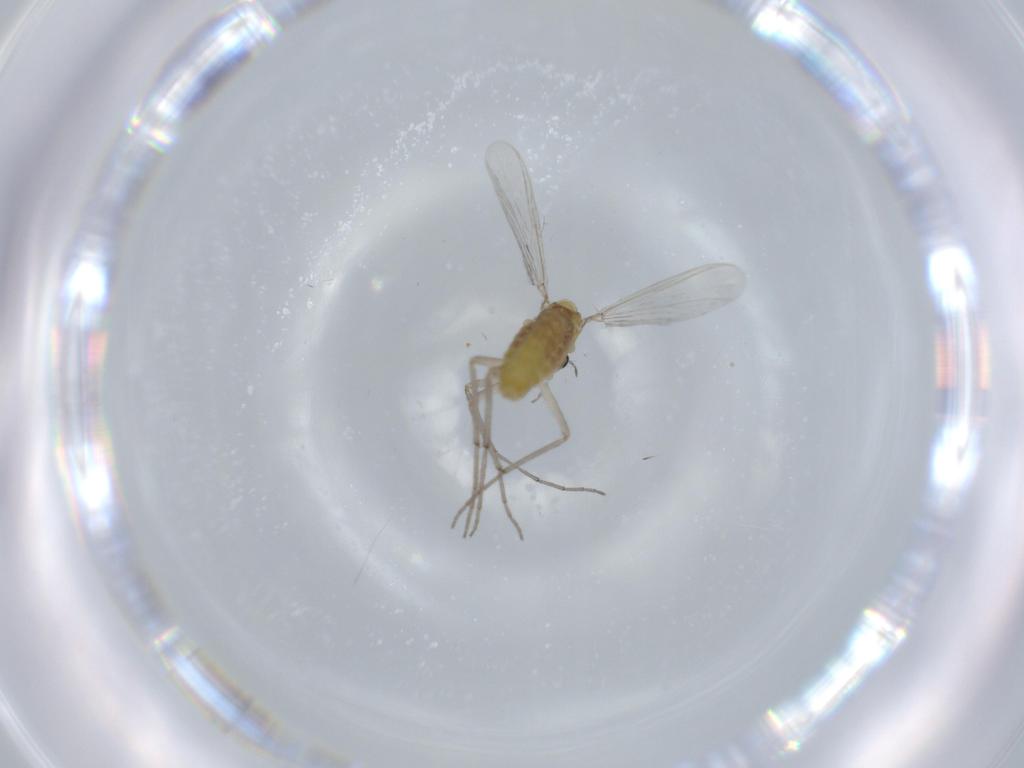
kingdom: Animalia
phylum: Arthropoda
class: Insecta
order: Diptera
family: Chironomidae
